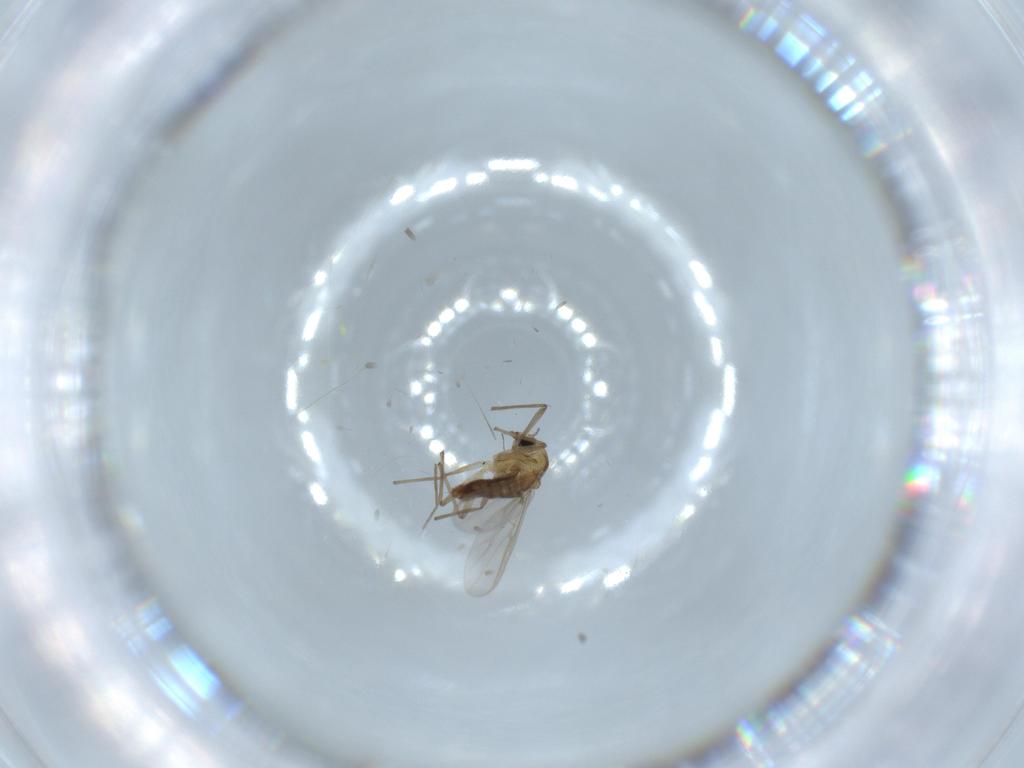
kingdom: Animalia
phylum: Arthropoda
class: Insecta
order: Diptera
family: Chironomidae
